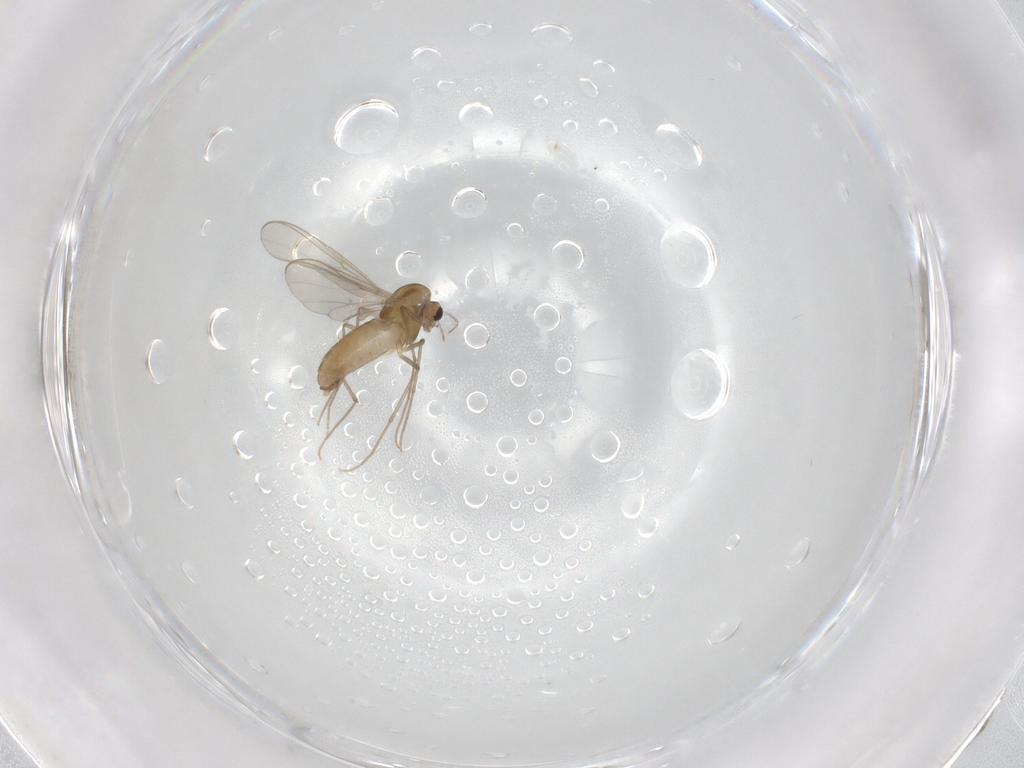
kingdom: Animalia
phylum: Arthropoda
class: Insecta
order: Diptera
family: Chironomidae
